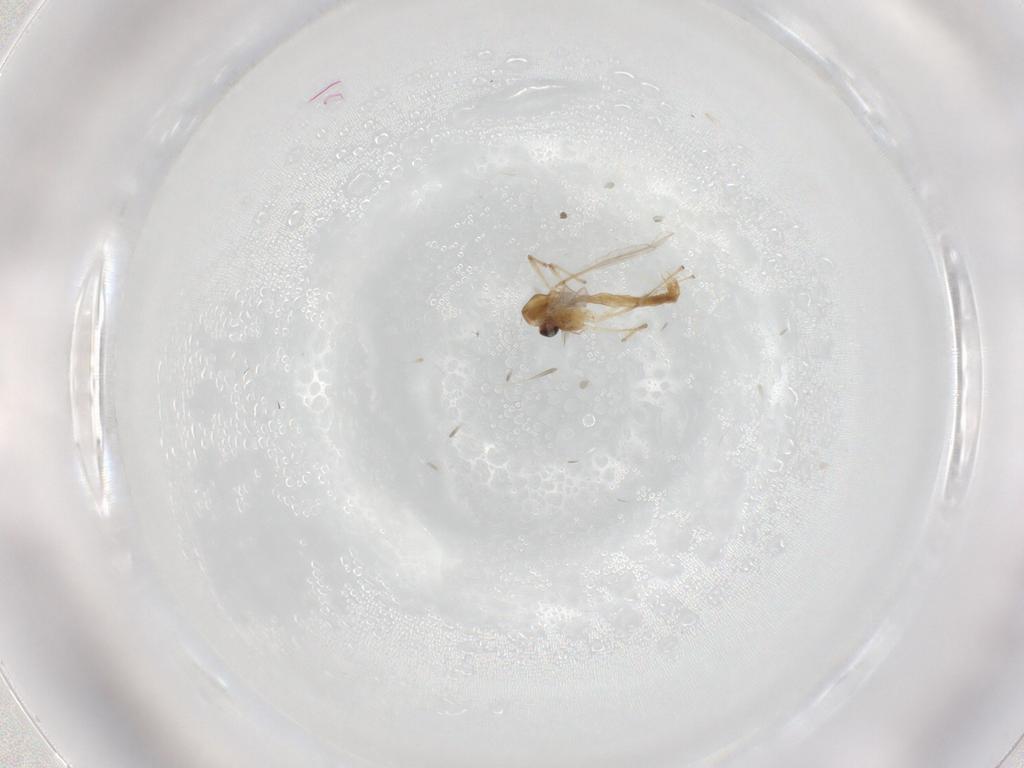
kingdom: Animalia
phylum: Arthropoda
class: Insecta
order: Diptera
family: Chironomidae
